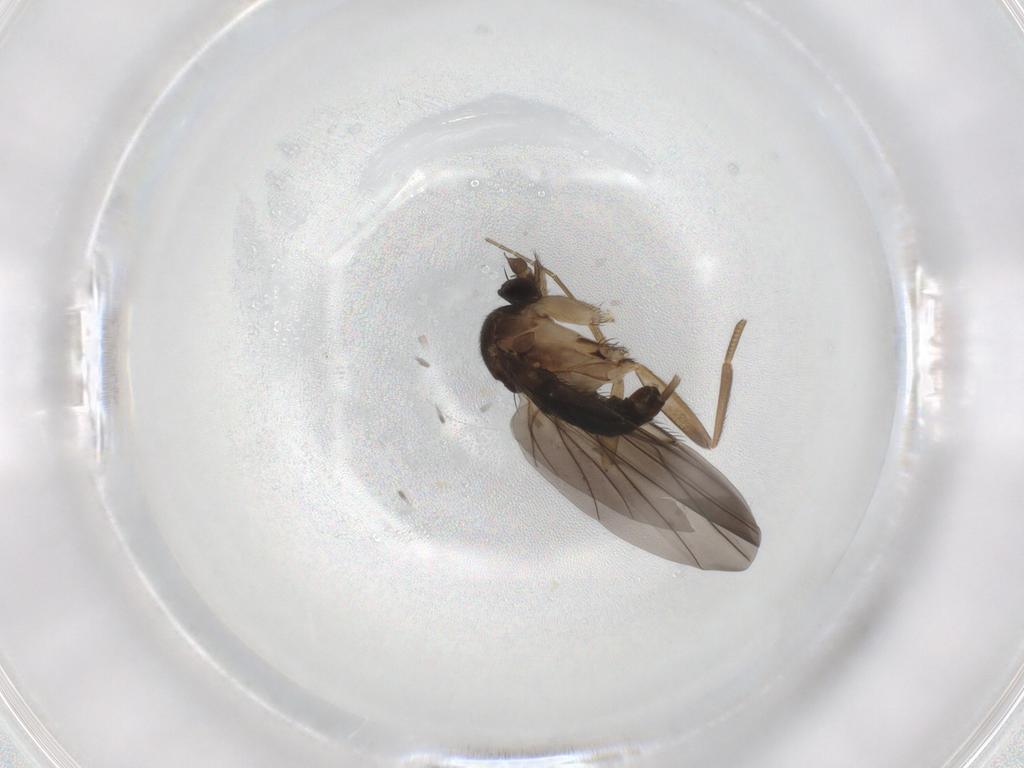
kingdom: Animalia
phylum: Arthropoda
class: Insecta
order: Diptera
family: Phoridae
